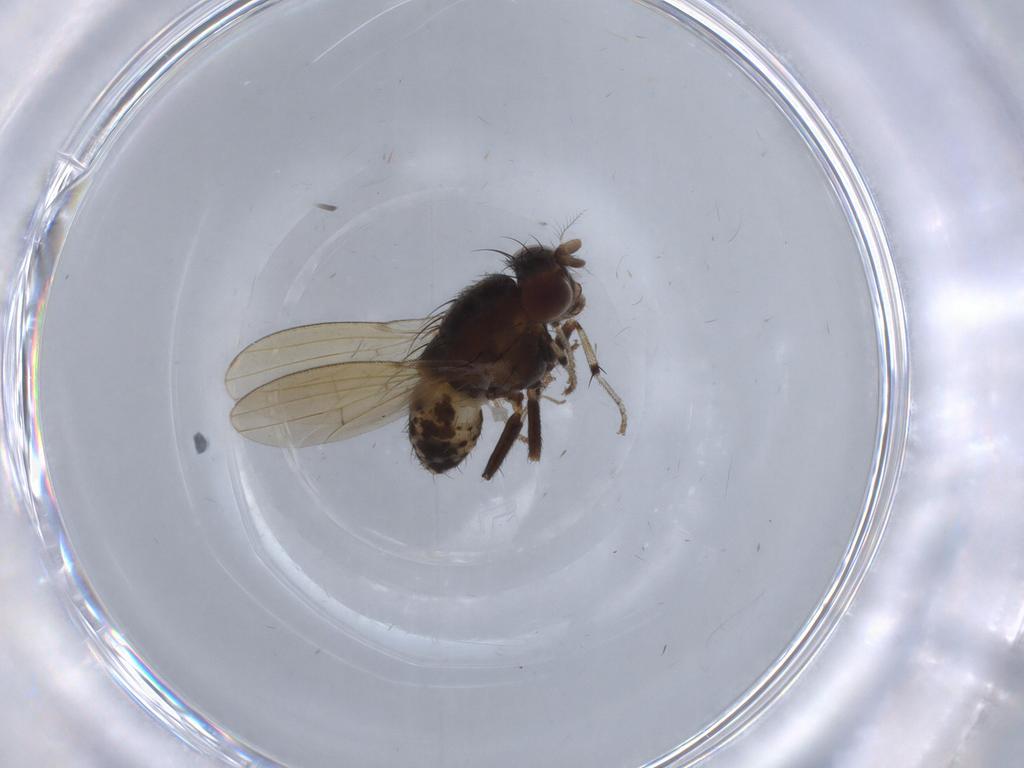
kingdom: Animalia
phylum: Arthropoda
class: Insecta
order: Diptera
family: Chironomidae
